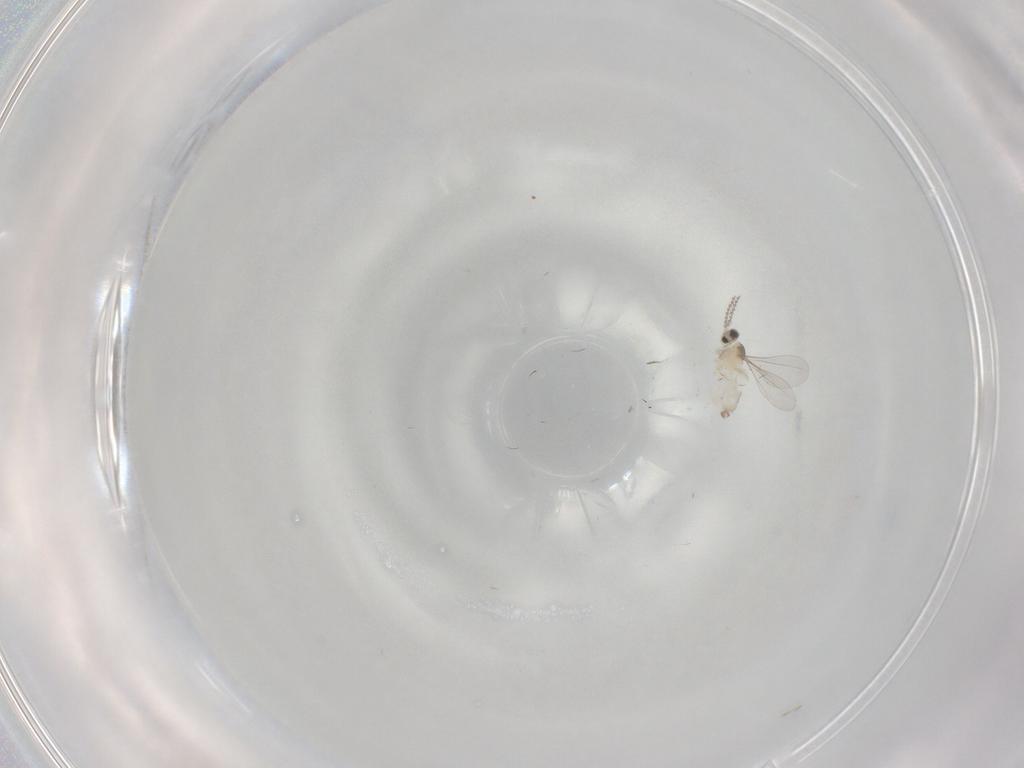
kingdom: Animalia
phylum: Arthropoda
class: Insecta
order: Diptera
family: Cecidomyiidae
